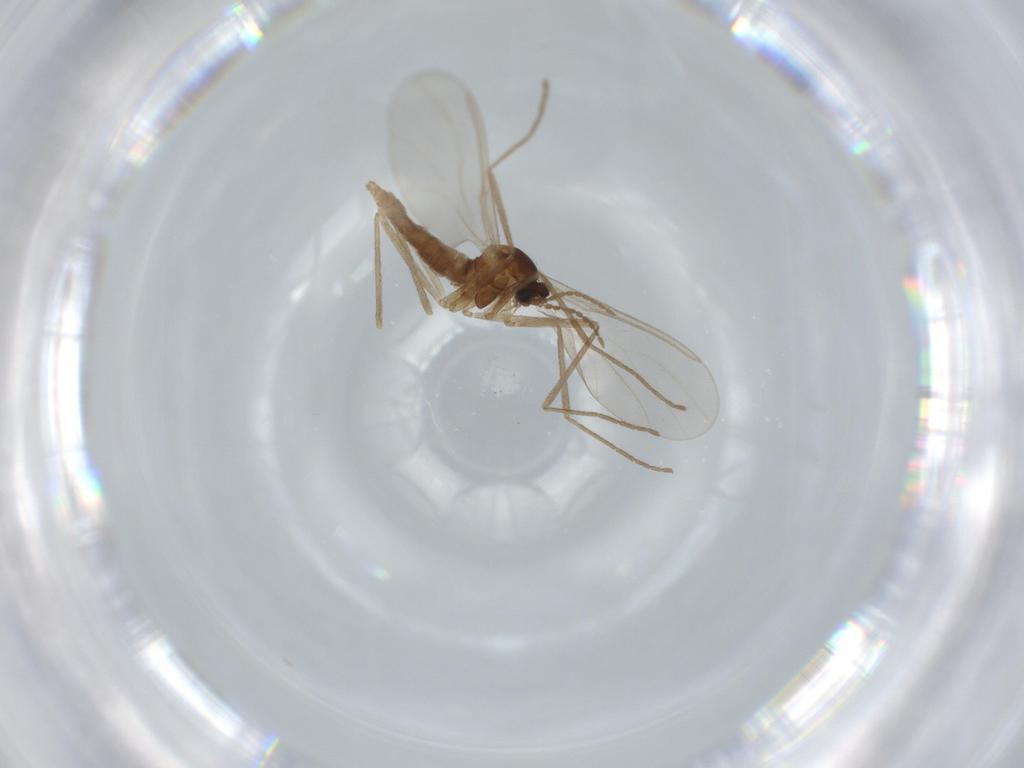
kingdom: Animalia
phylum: Arthropoda
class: Insecta
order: Diptera
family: Cecidomyiidae
